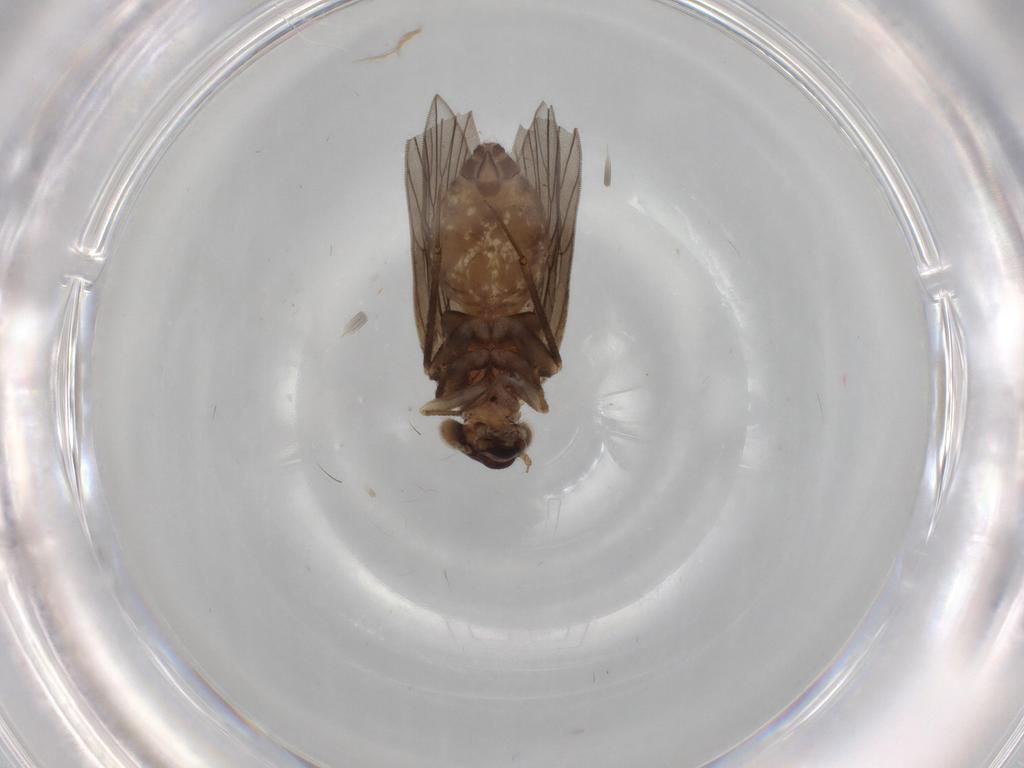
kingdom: Animalia
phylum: Arthropoda
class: Insecta
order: Psocodea
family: Lepidopsocidae
